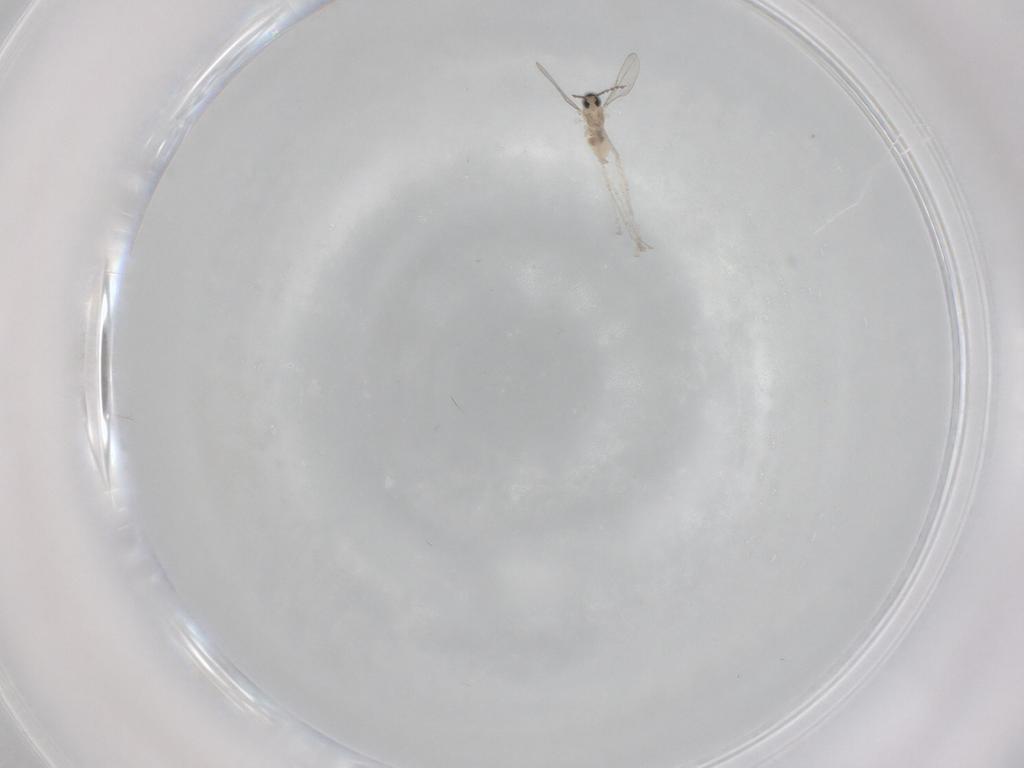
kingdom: Animalia
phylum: Arthropoda
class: Insecta
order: Diptera
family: Cecidomyiidae
